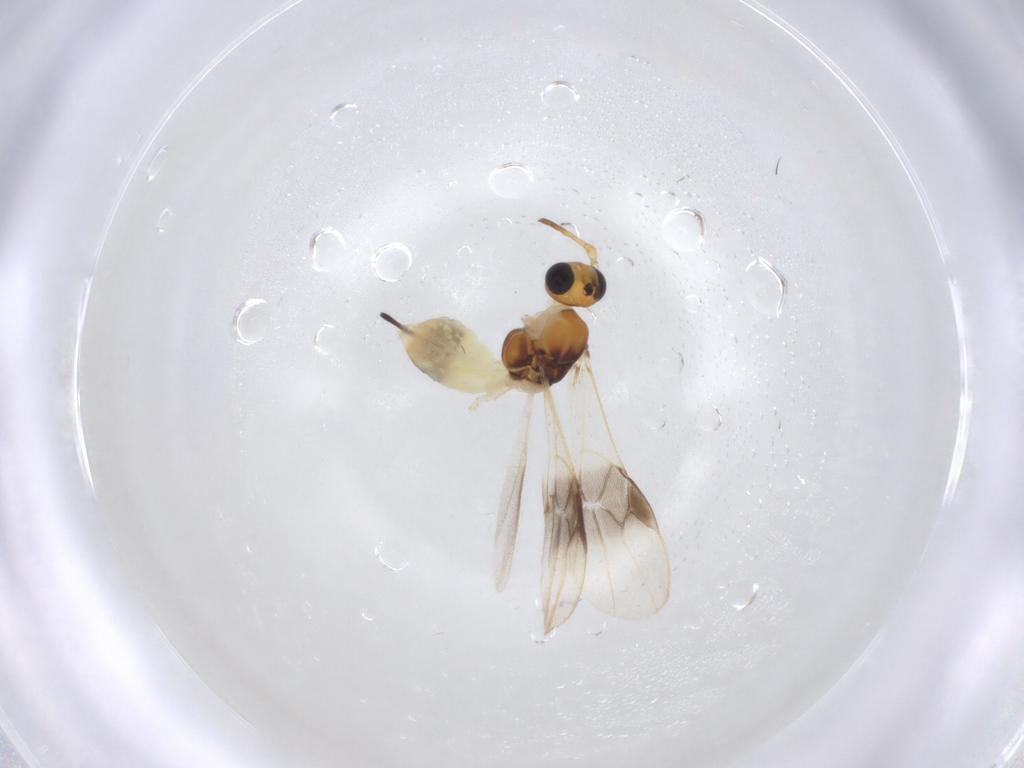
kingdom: Animalia
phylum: Arthropoda
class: Insecta
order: Hymenoptera
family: Braconidae
